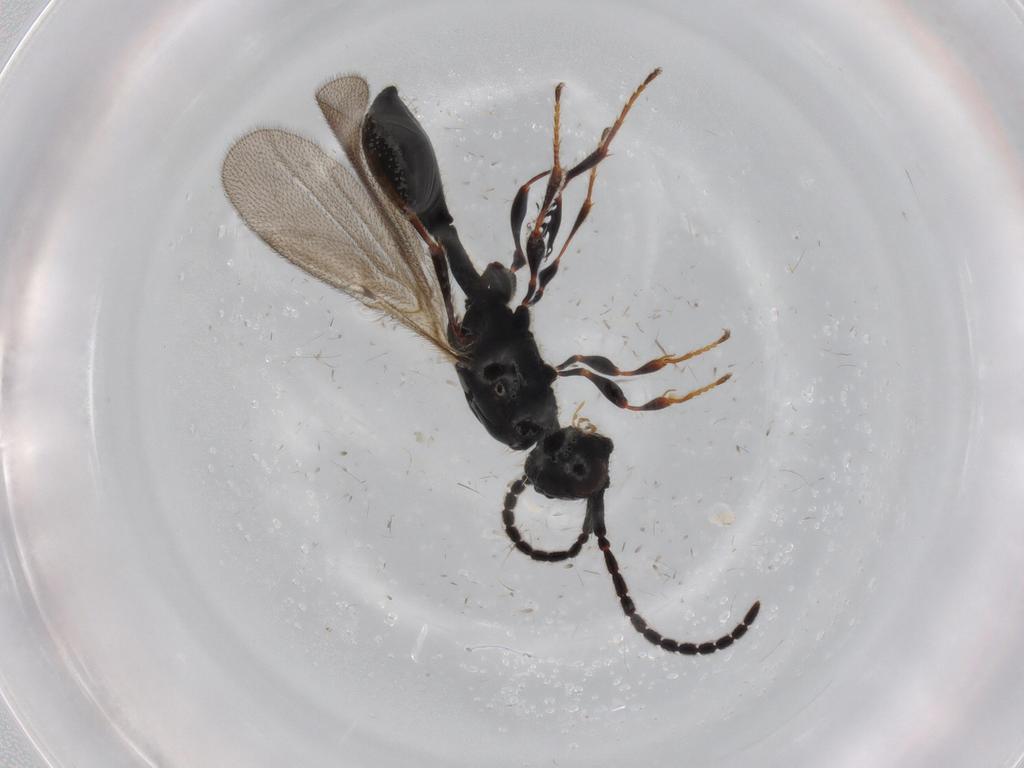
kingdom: Animalia
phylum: Arthropoda
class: Insecta
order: Hymenoptera
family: Diapriidae
